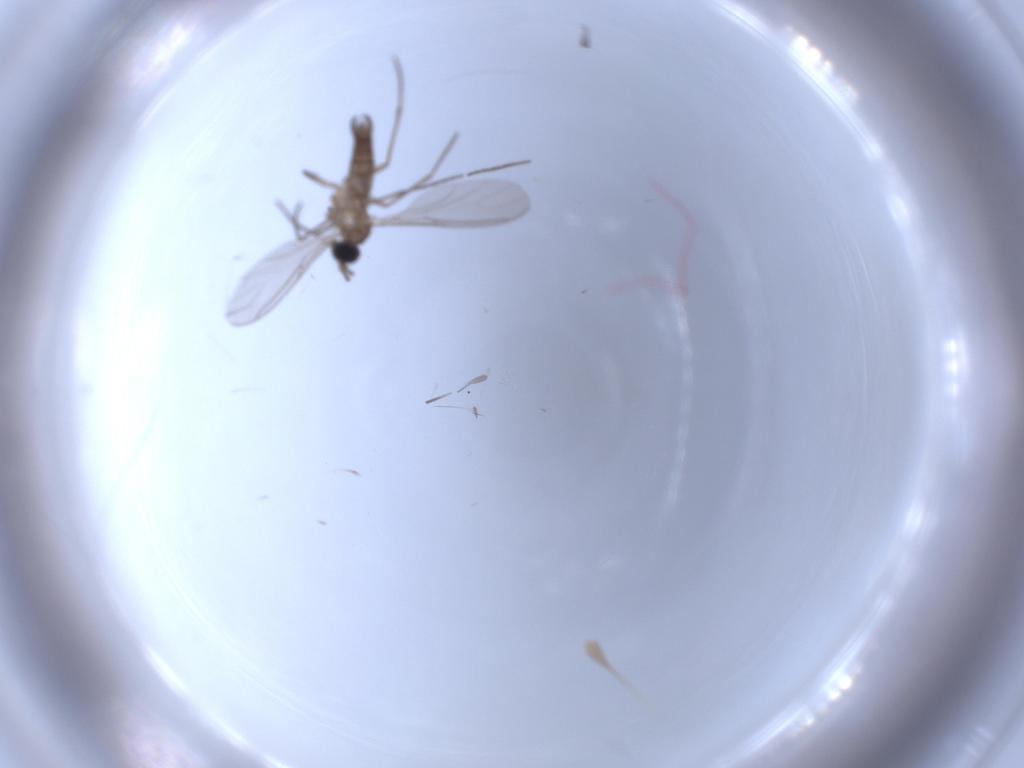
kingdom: Animalia
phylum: Arthropoda
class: Insecta
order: Diptera
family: Sciaridae
